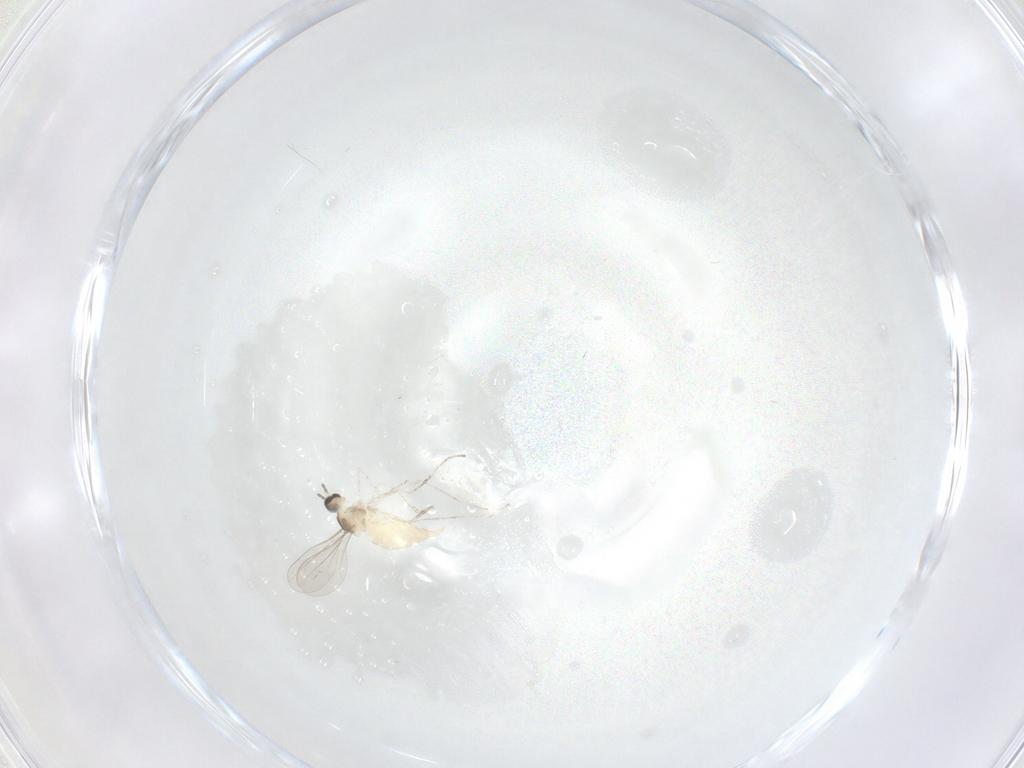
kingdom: Animalia
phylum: Arthropoda
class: Insecta
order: Diptera
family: Cecidomyiidae
